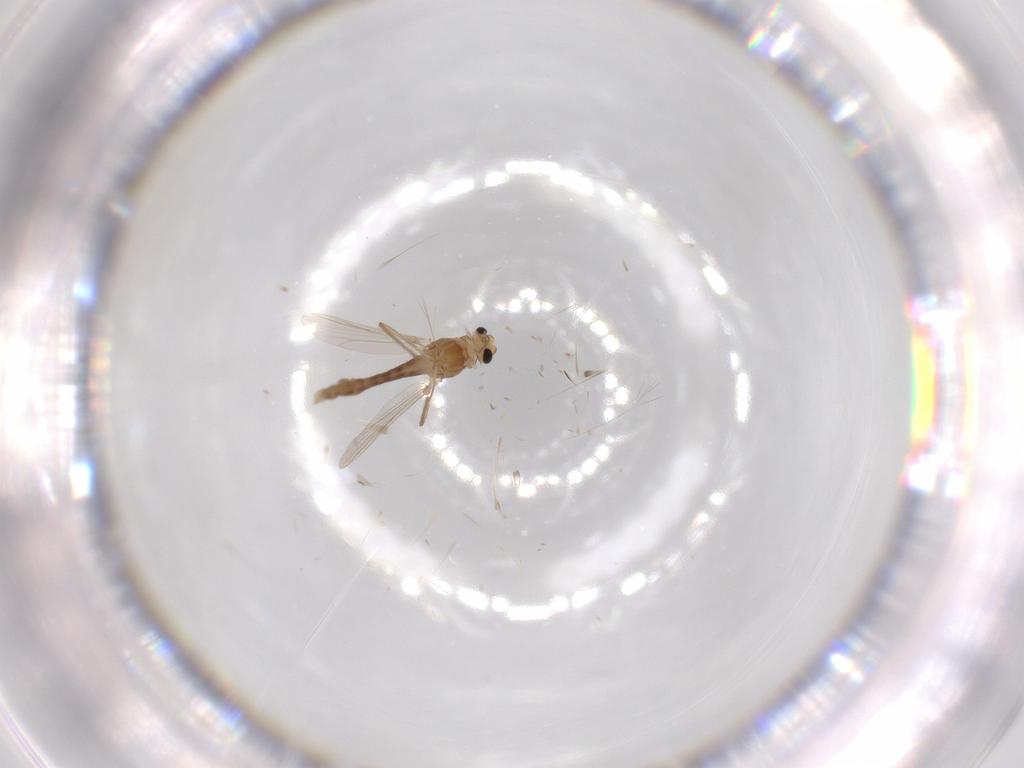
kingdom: Animalia
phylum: Arthropoda
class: Insecta
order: Diptera
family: Chironomidae
